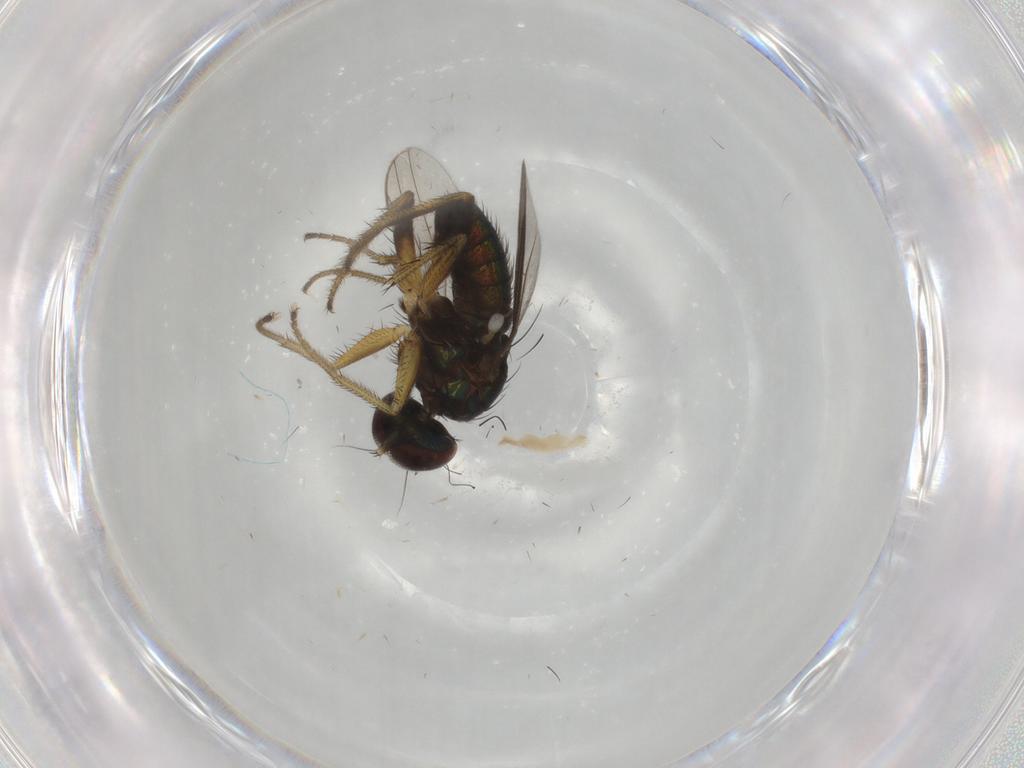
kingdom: Animalia
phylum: Arthropoda
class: Insecta
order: Diptera
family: Dolichopodidae
